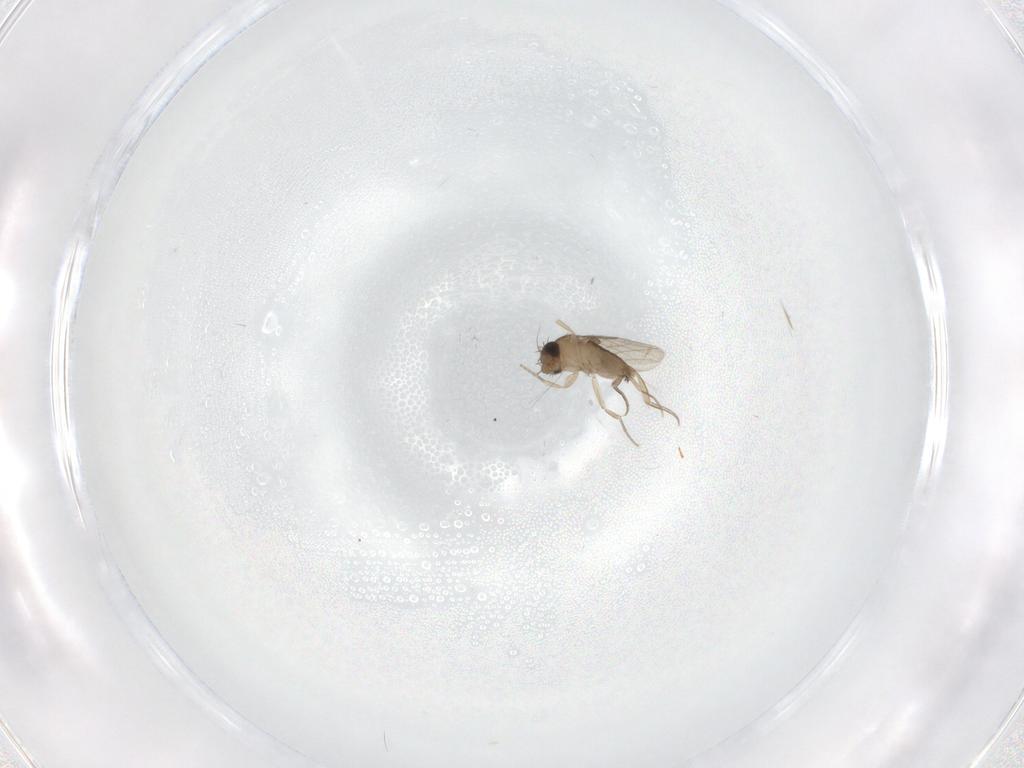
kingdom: Animalia
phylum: Arthropoda
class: Insecta
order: Diptera
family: Phoridae
